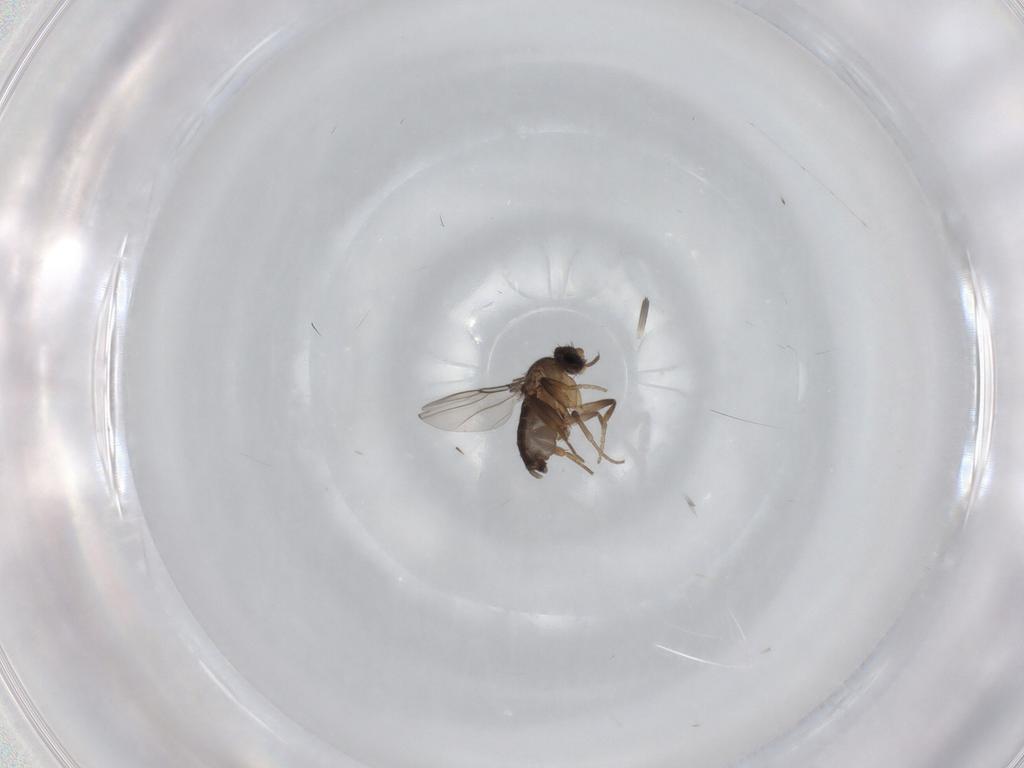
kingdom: Animalia
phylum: Arthropoda
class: Insecta
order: Diptera
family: Phoridae
